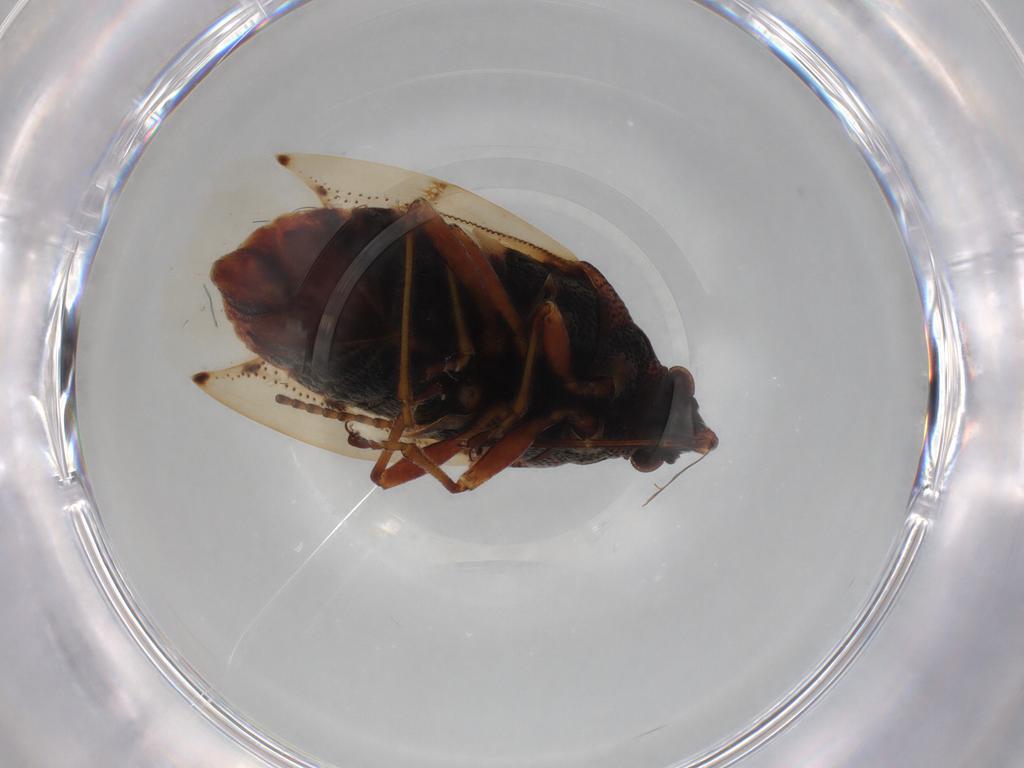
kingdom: Animalia
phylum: Arthropoda
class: Insecta
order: Hemiptera
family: Lygaeidae
